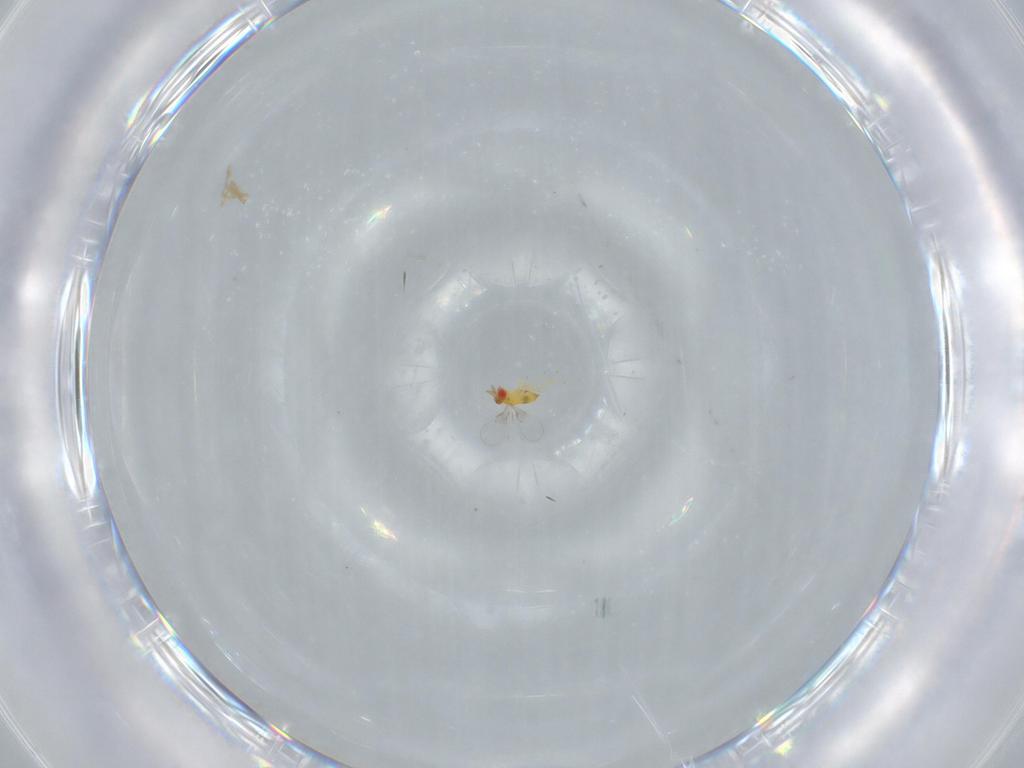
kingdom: Animalia
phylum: Arthropoda
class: Insecta
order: Hymenoptera
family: Trichogrammatidae
